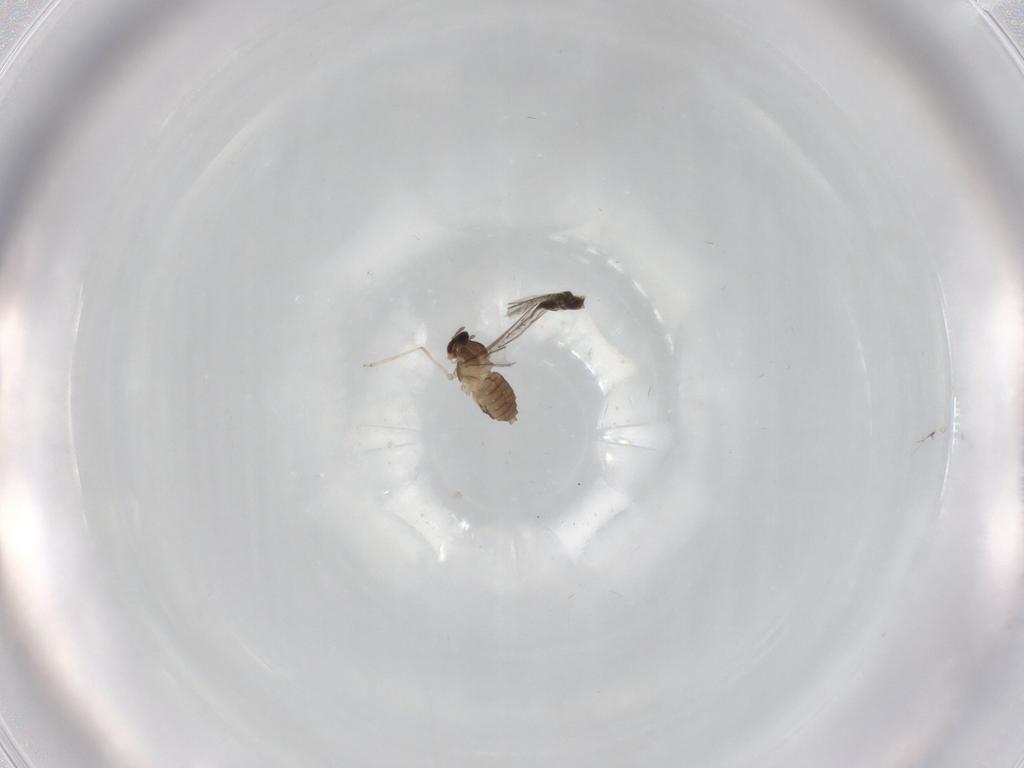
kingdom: Animalia
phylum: Arthropoda
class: Insecta
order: Diptera
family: Cecidomyiidae
